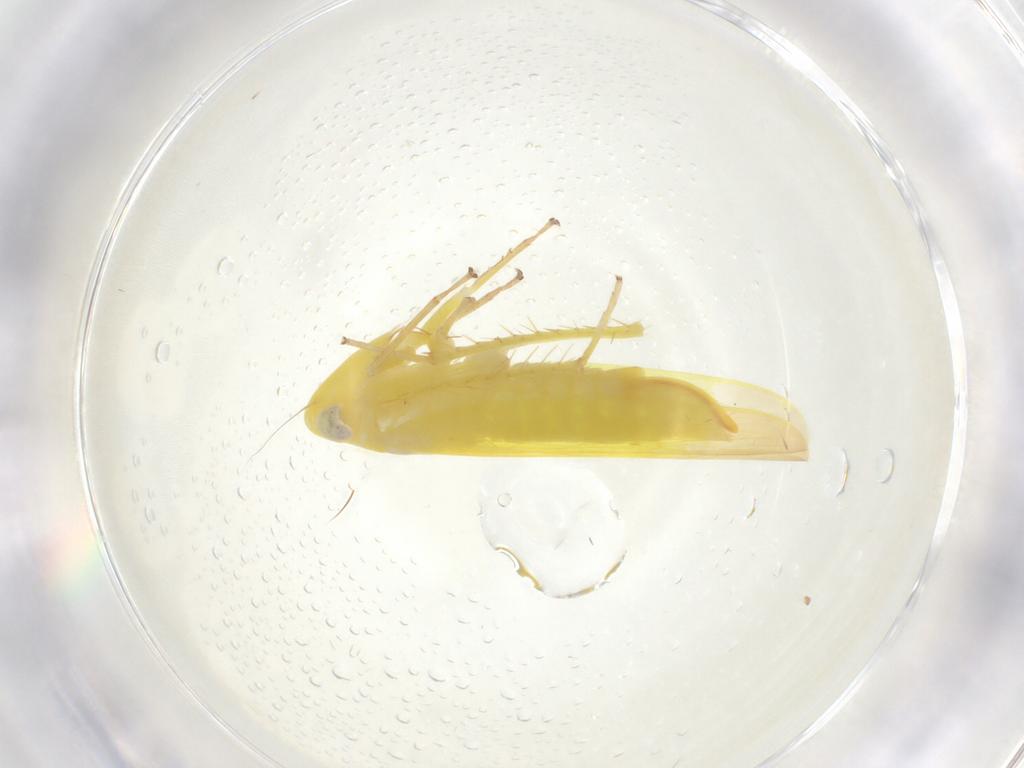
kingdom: Animalia
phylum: Arthropoda
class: Insecta
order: Hemiptera
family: Cicadellidae
